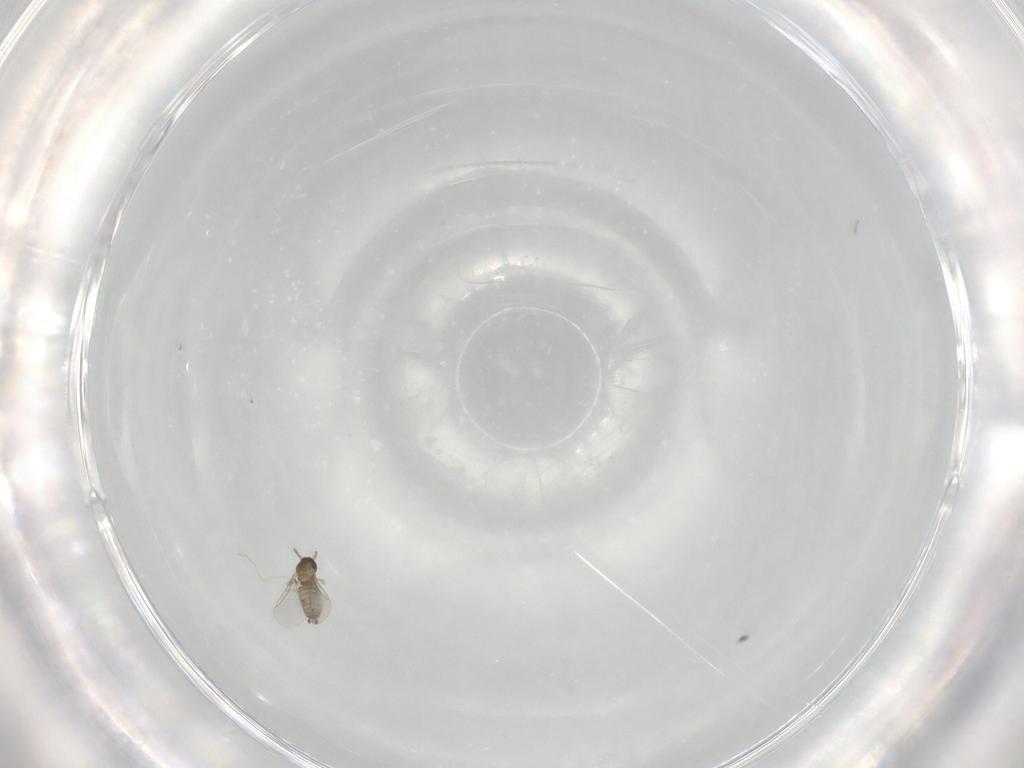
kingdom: Animalia
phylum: Arthropoda
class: Insecta
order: Diptera
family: Cecidomyiidae
